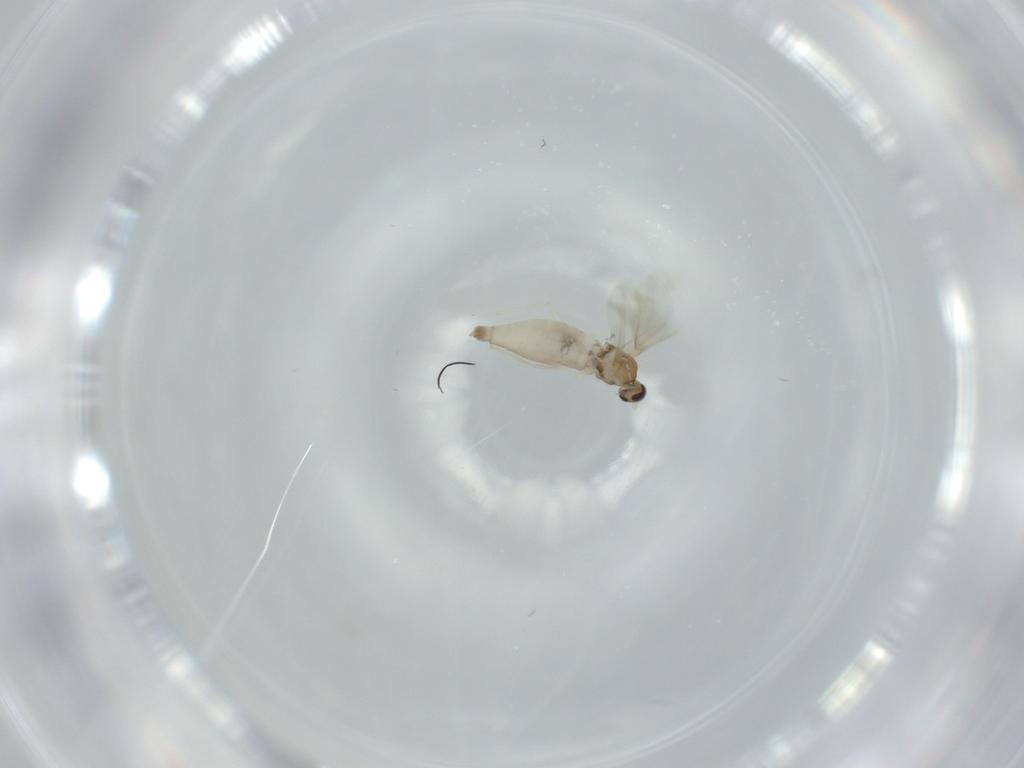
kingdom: Animalia
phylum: Arthropoda
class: Insecta
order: Diptera
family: Cecidomyiidae
